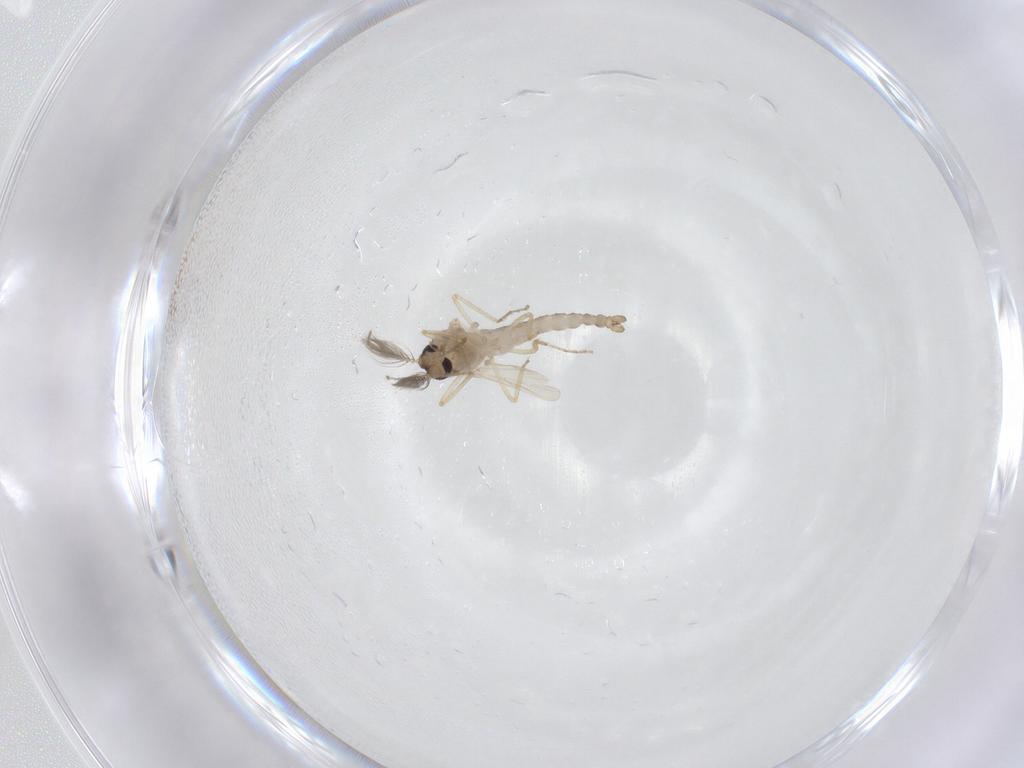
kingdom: Animalia
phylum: Arthropoda
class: Insecta
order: Diptera
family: Ceratopogonidae
